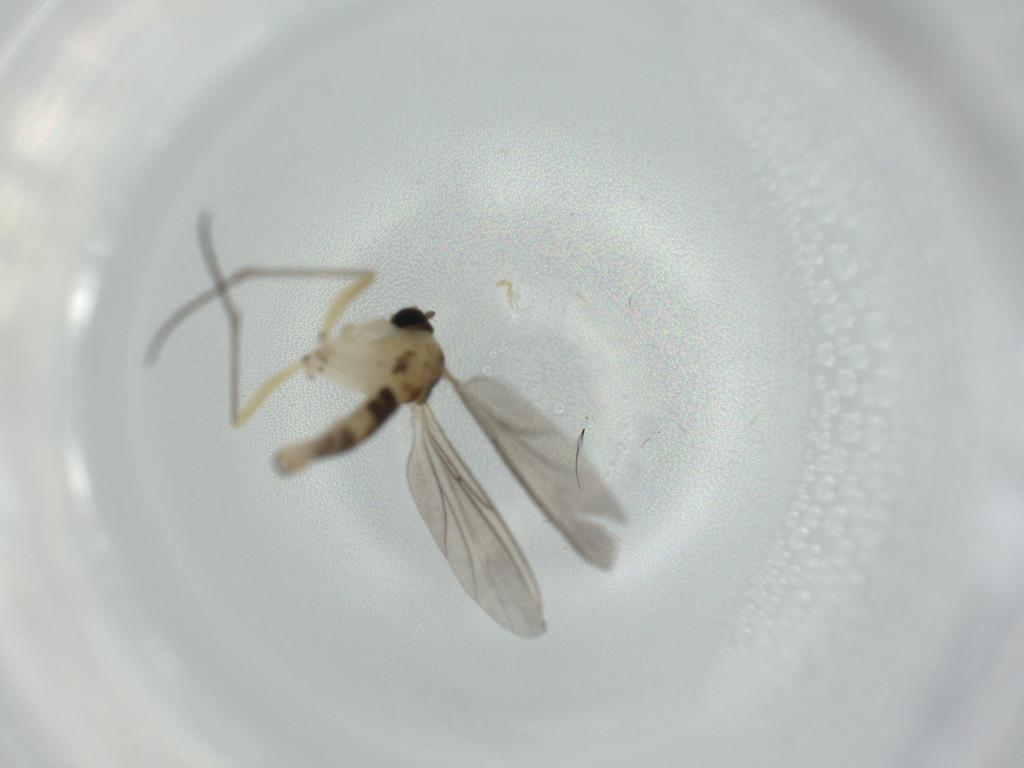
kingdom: Animalia
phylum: Arthropoda
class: Insecta
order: Diptera
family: Sciaridae
